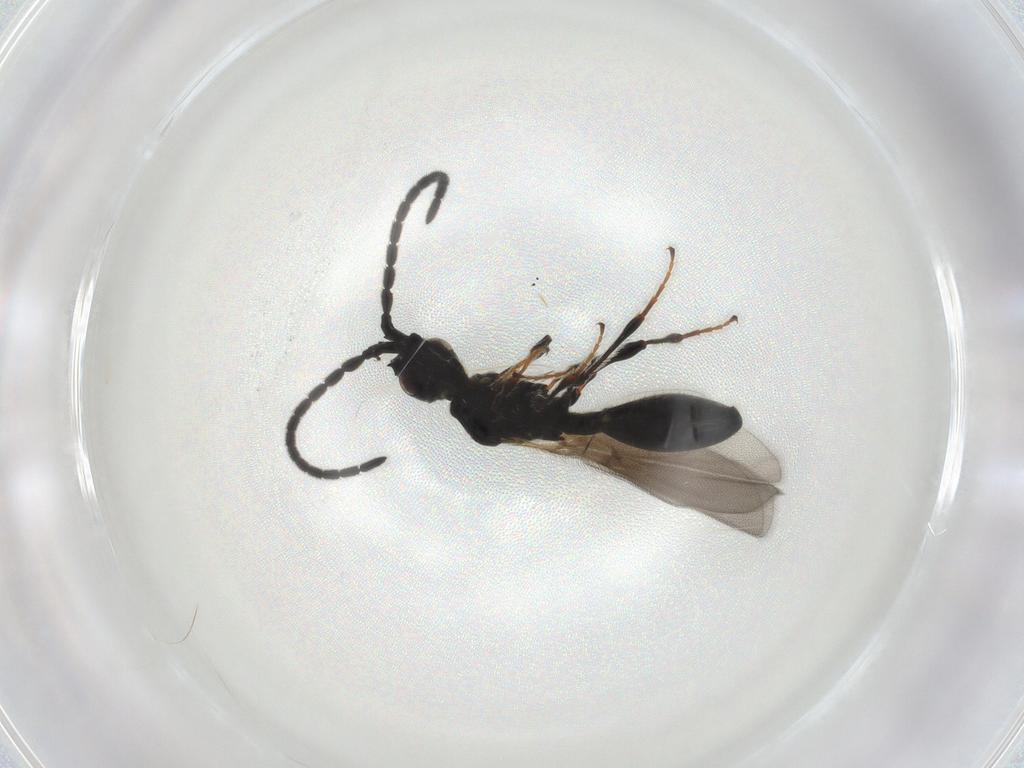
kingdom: Animalia
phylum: Arthropoda
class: Insecta
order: Hymenoptera
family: Diapriidae
